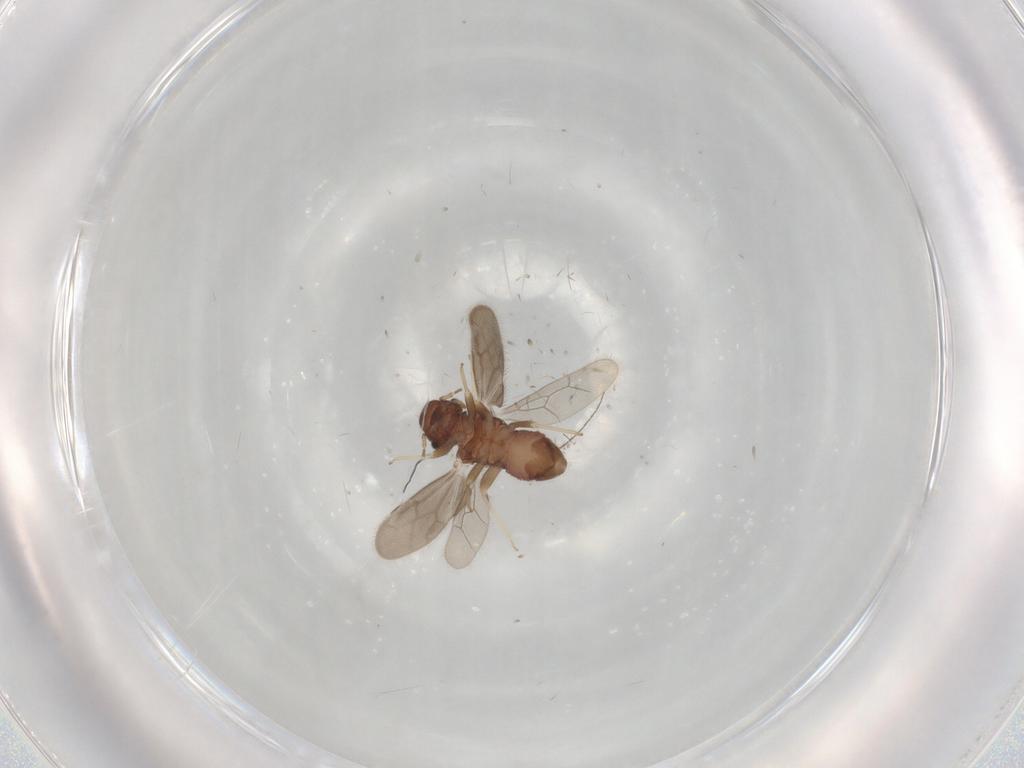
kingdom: Animalia
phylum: Arthropoda
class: Insecta
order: Psocodea
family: Archipsocidae
